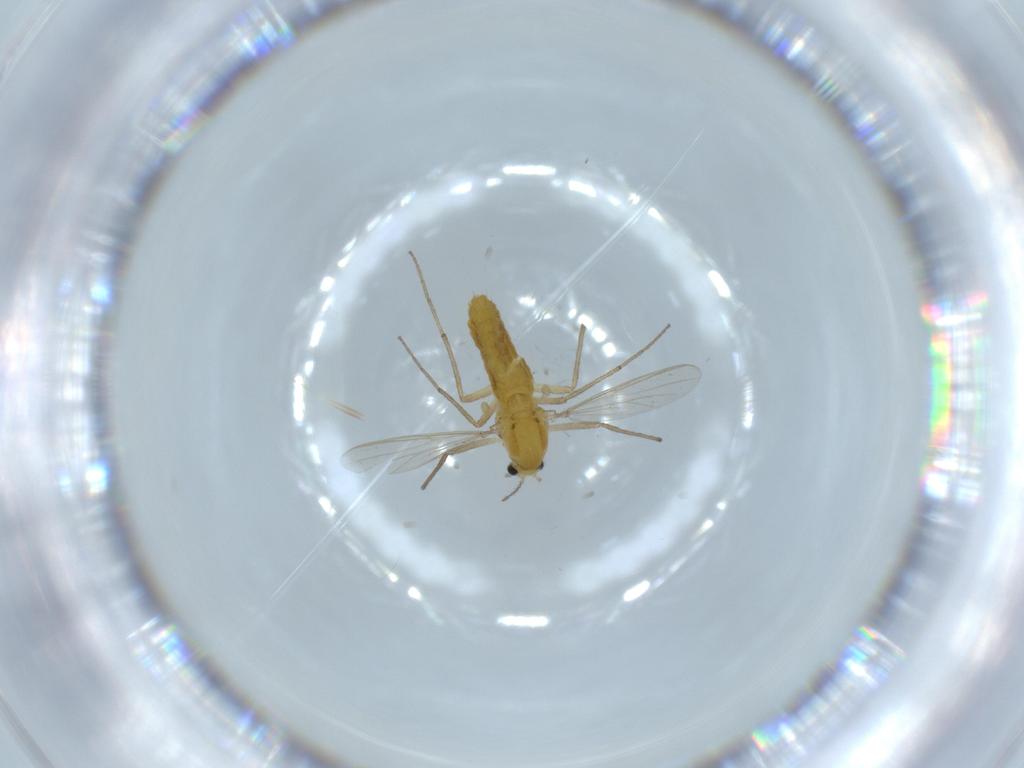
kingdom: Animalia
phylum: Arthropoda
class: Insecta
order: Diptera
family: Chironomidae
